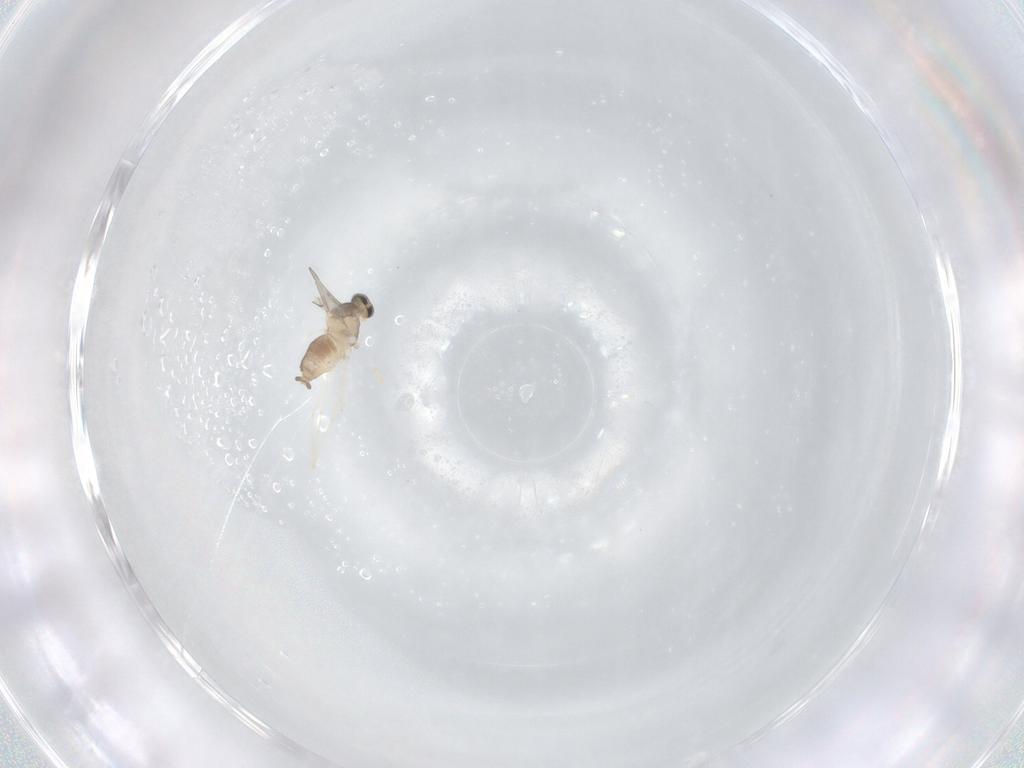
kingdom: Animalia
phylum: Arthropoda
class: Insecta
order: Diptera
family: Cecidomyiidae
